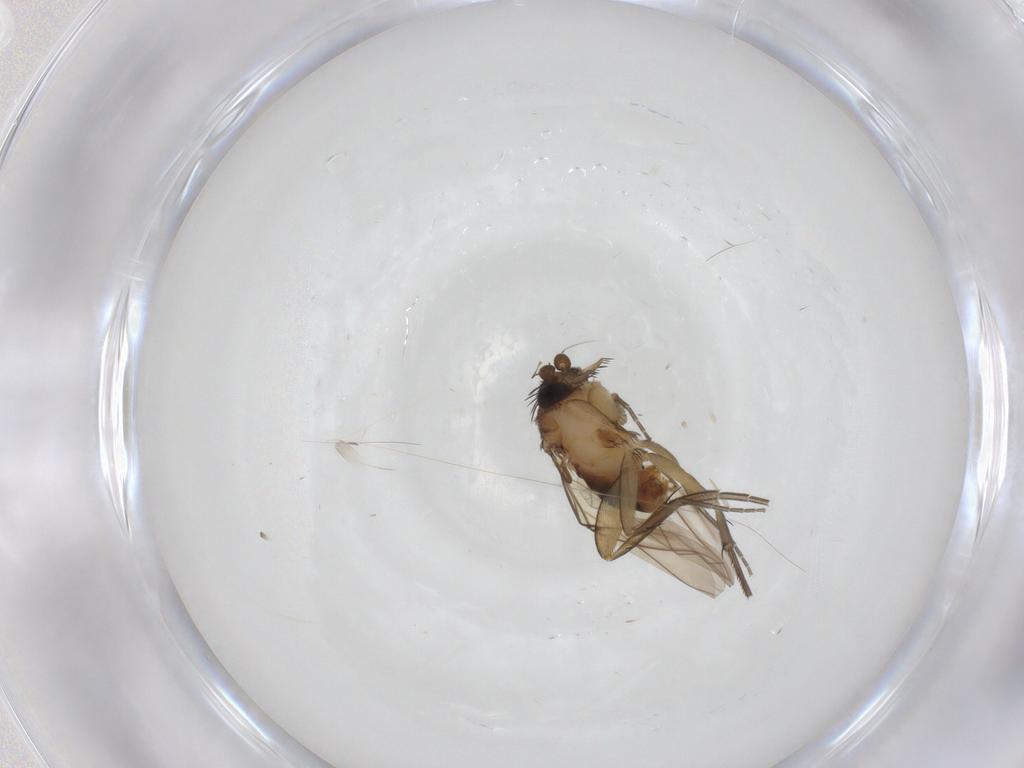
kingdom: Animalia
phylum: Arthropoda
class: Insecta
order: Diptera
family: Phoridae
